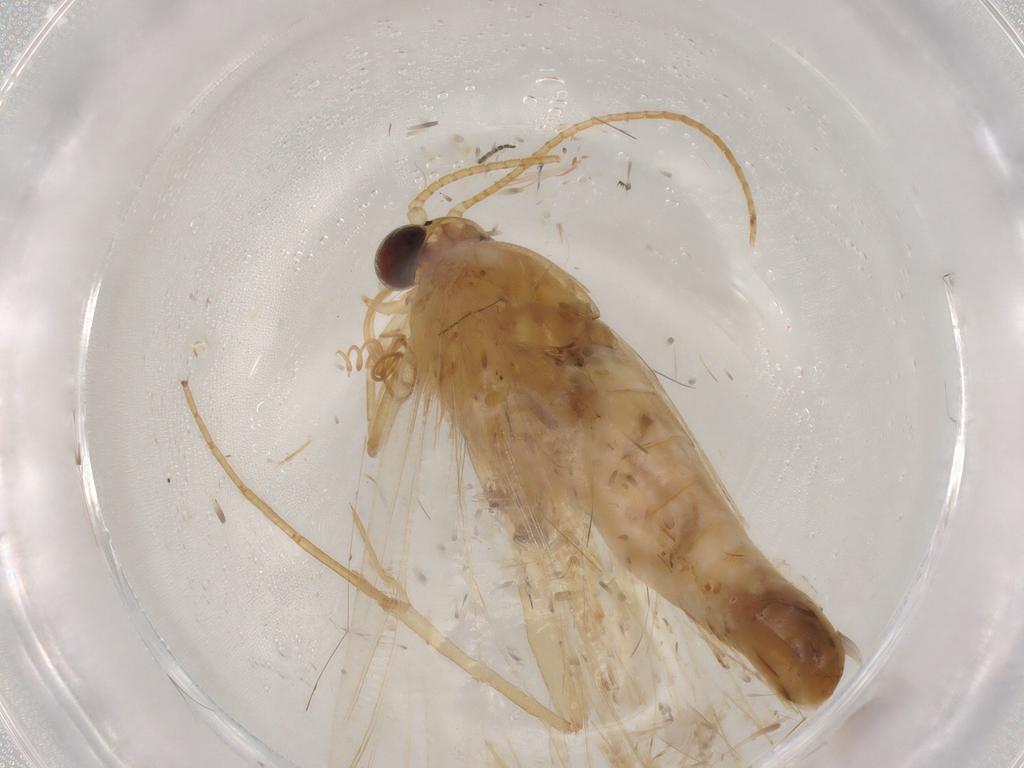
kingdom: Animalia
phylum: Arthropoda
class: Insecta
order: Lepidoptera
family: Crambidae
